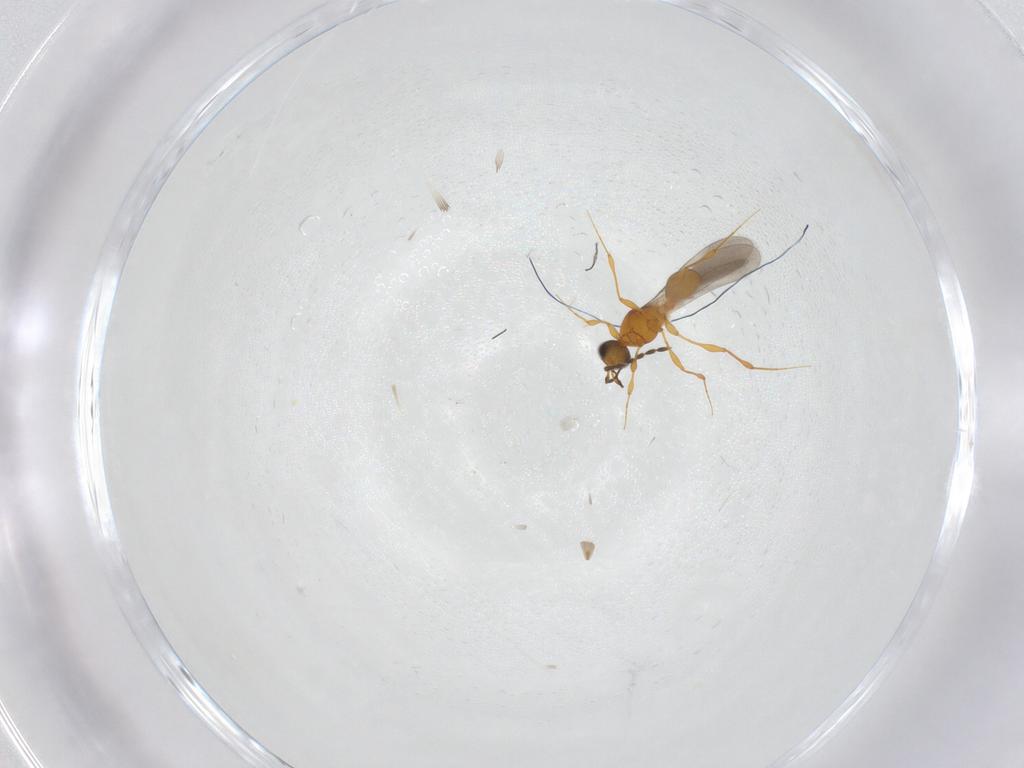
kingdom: Animalia
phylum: Arthropoda
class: Insecta
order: Hymenoptera
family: Platygastridae
